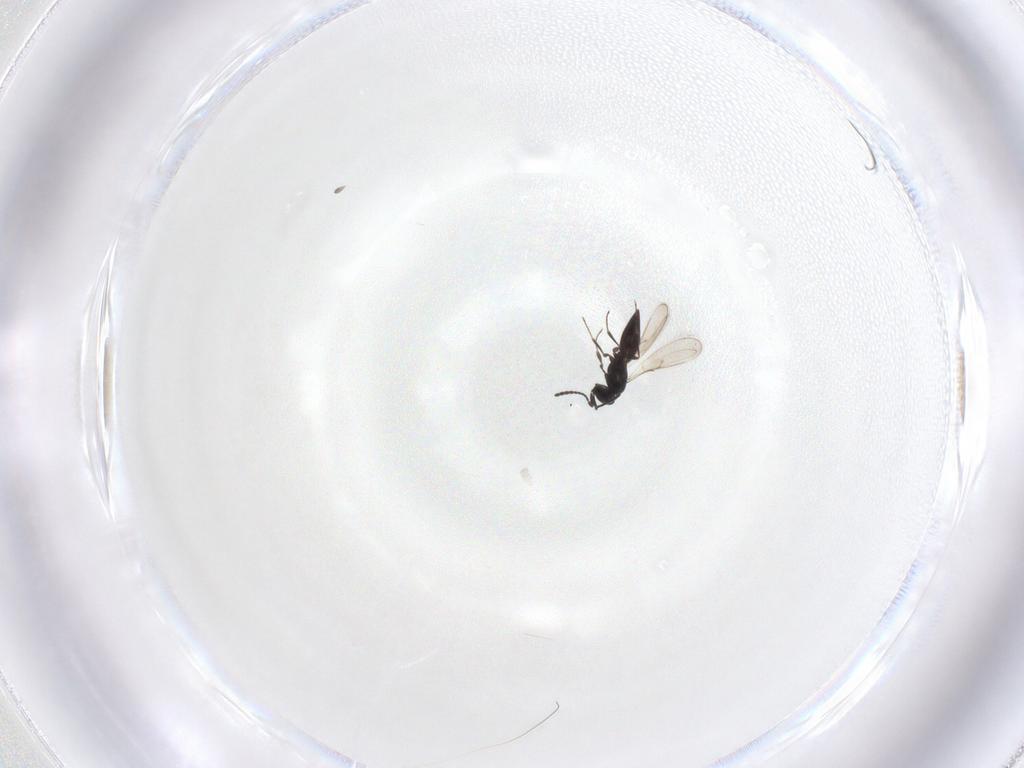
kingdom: Animalia
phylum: Arthropoda
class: Insecta
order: Hymenoptera
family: Scelionidae
